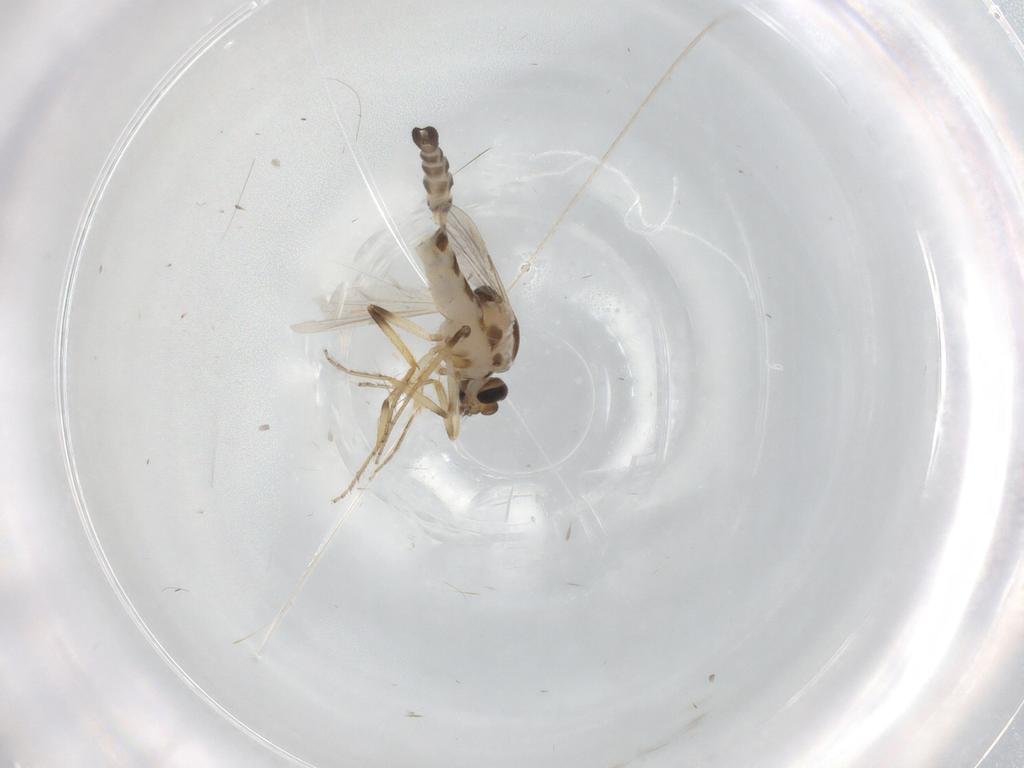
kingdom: Animalia
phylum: Arthropoda
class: Insecta
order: Diptera
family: Ceratopogonidae
